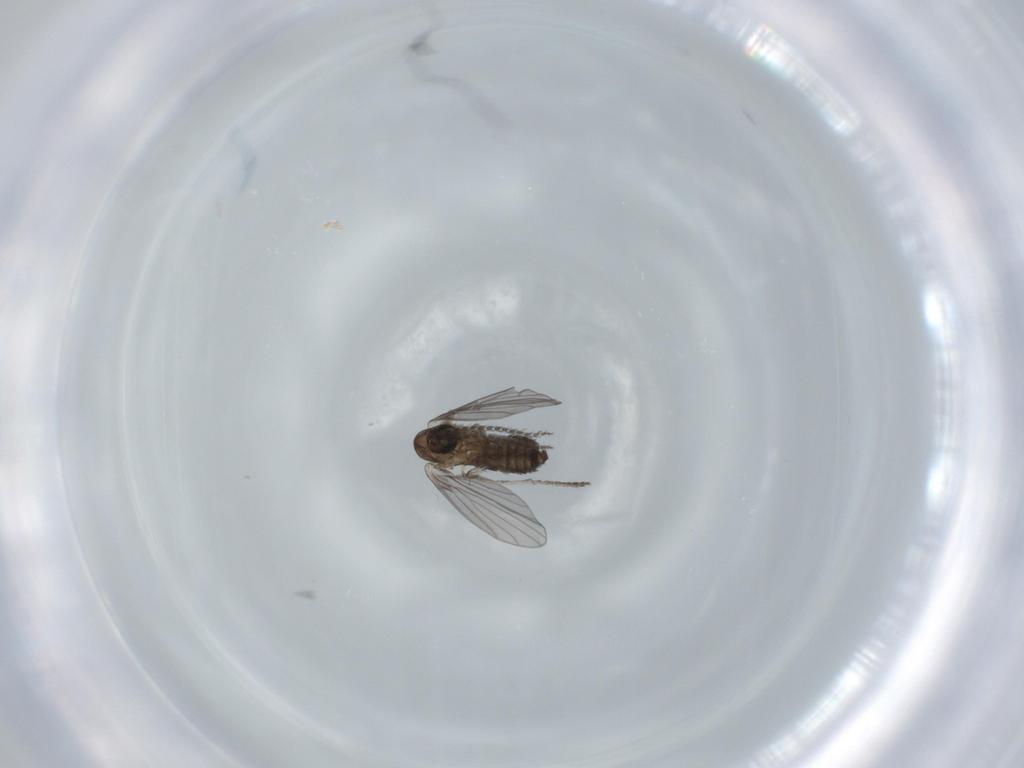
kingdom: Animalia
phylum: Arthropoda
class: Insecta
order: Diptera
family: Psychodidae
